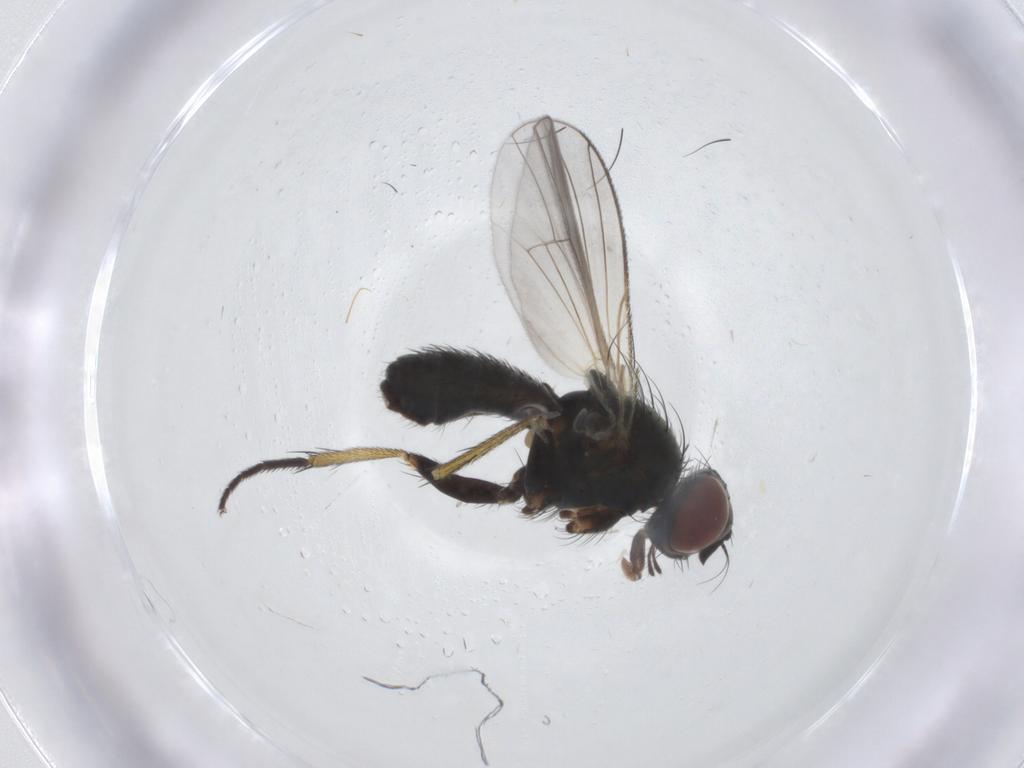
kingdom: Animalia
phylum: Arthropoda
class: Insecta
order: Diptera
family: Muscidae
